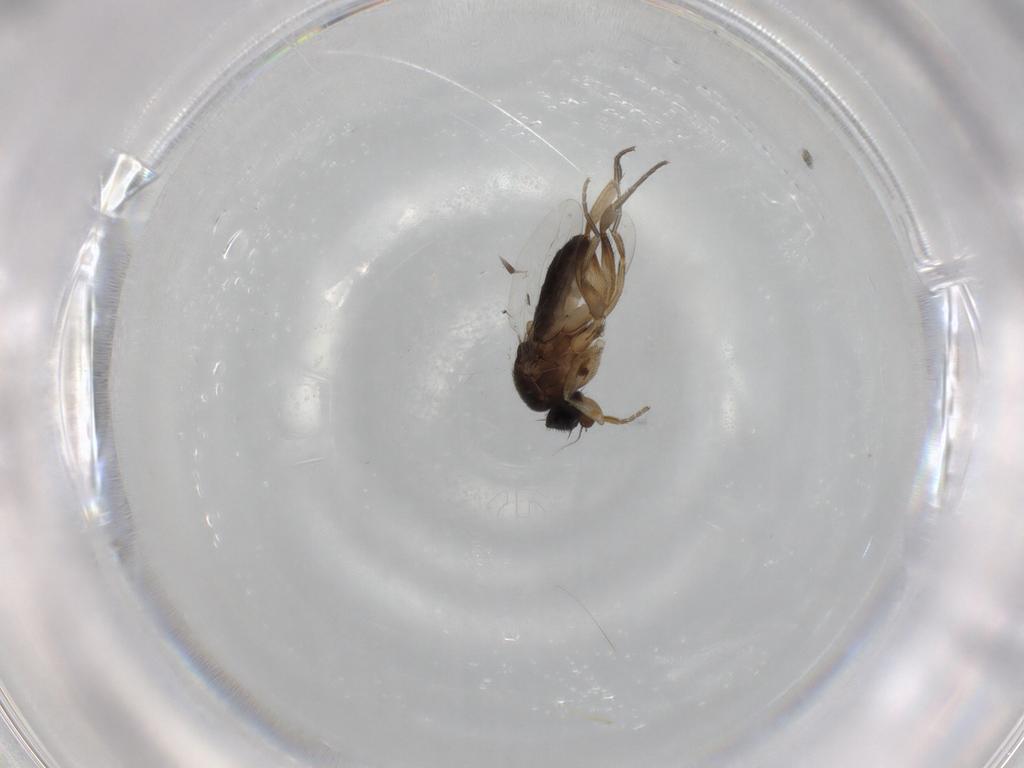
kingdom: Animalia
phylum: Arthropoda
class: Insecta
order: Diptera
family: Phoridae
